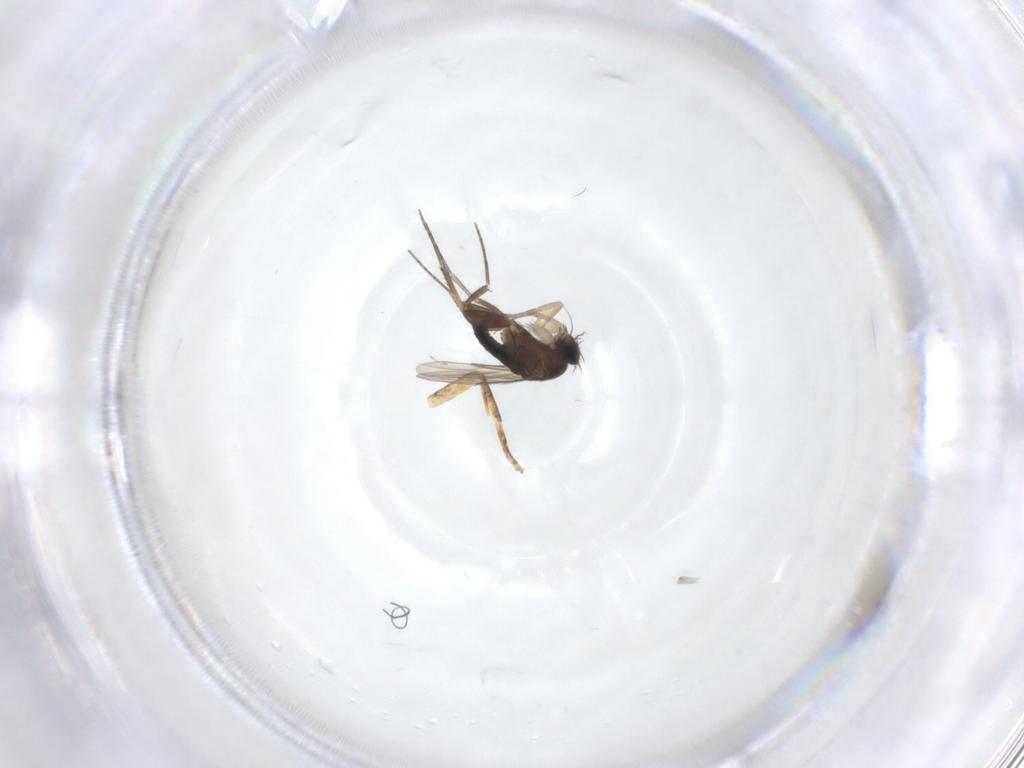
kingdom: Animalia
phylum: Arthropoda
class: Insecta
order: Diptera
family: Phoridae
